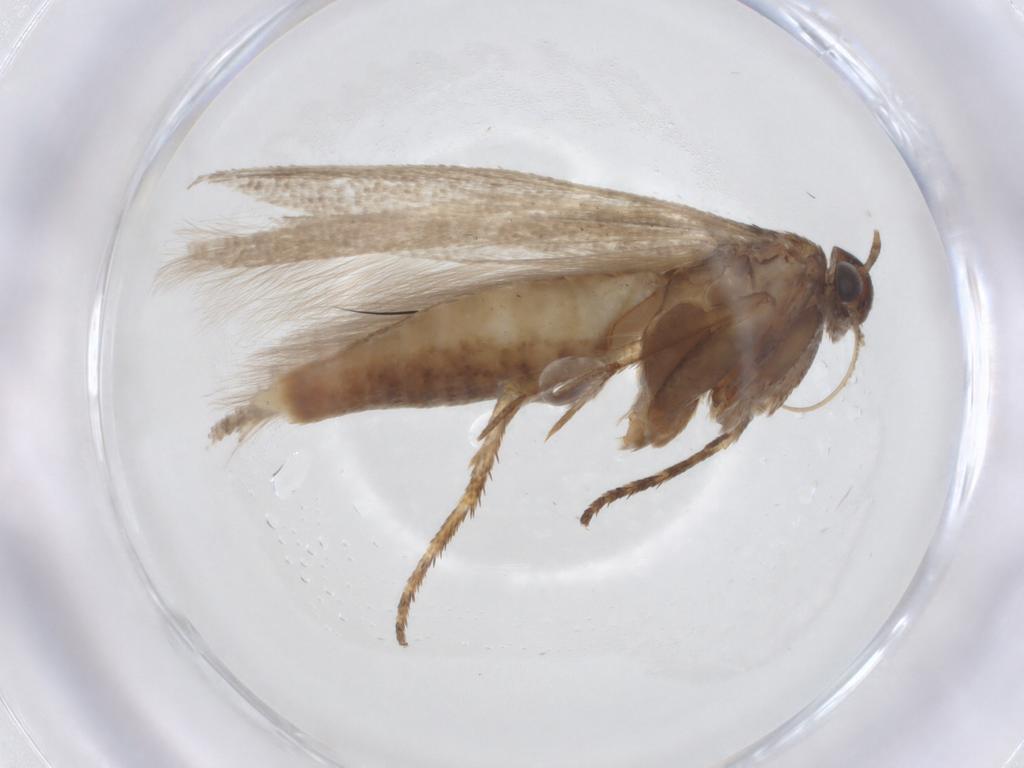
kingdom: Animalia
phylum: Arthropoda
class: Insecta
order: Lepidoptera
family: Gelechiidae
